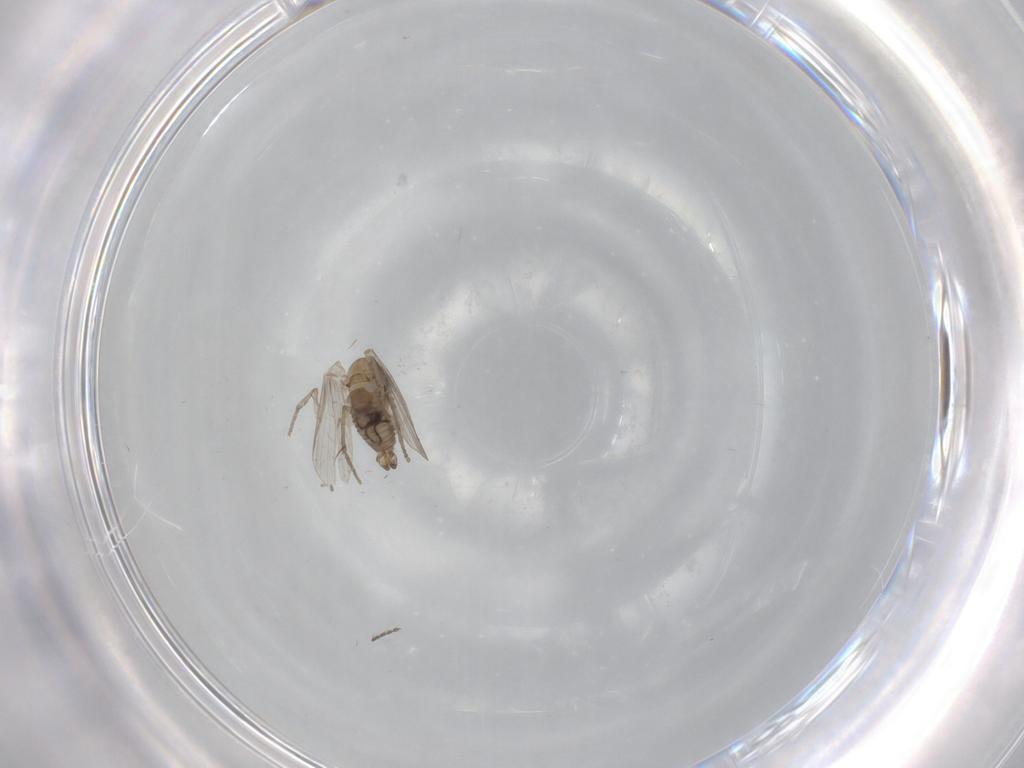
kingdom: Animalia
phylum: Arthropoda
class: Insecta
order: Diptera
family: Psychodidae
